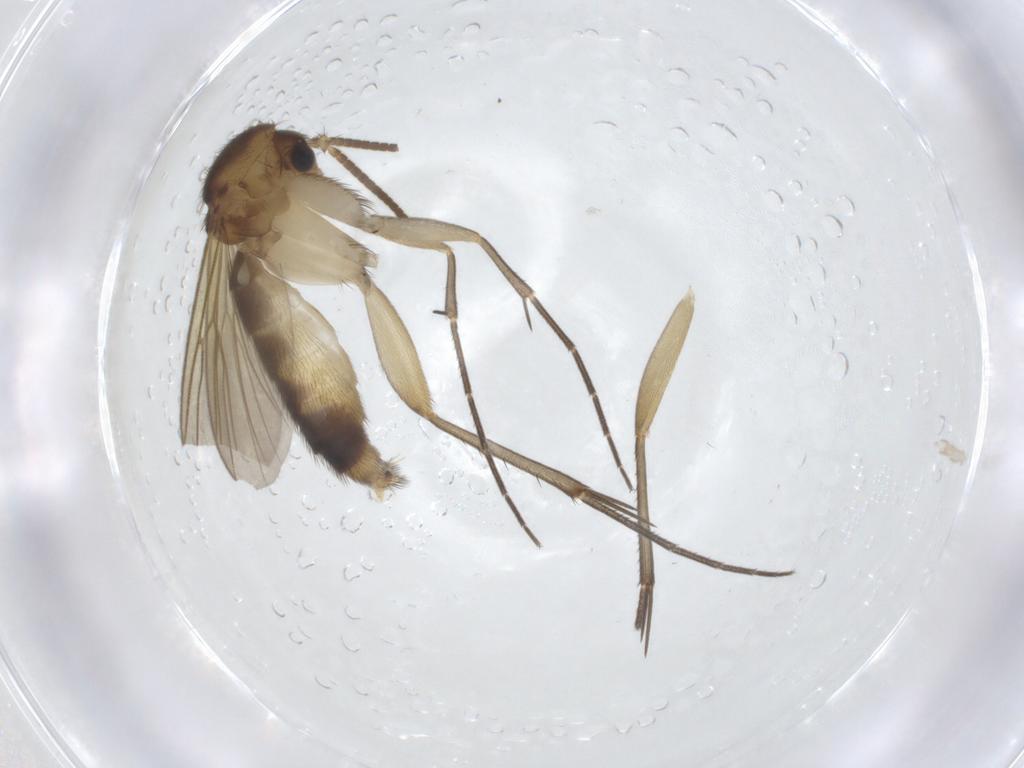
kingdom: Animalia
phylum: Arthropoda
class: Insecta
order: Diptera
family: Mycetophilidae
